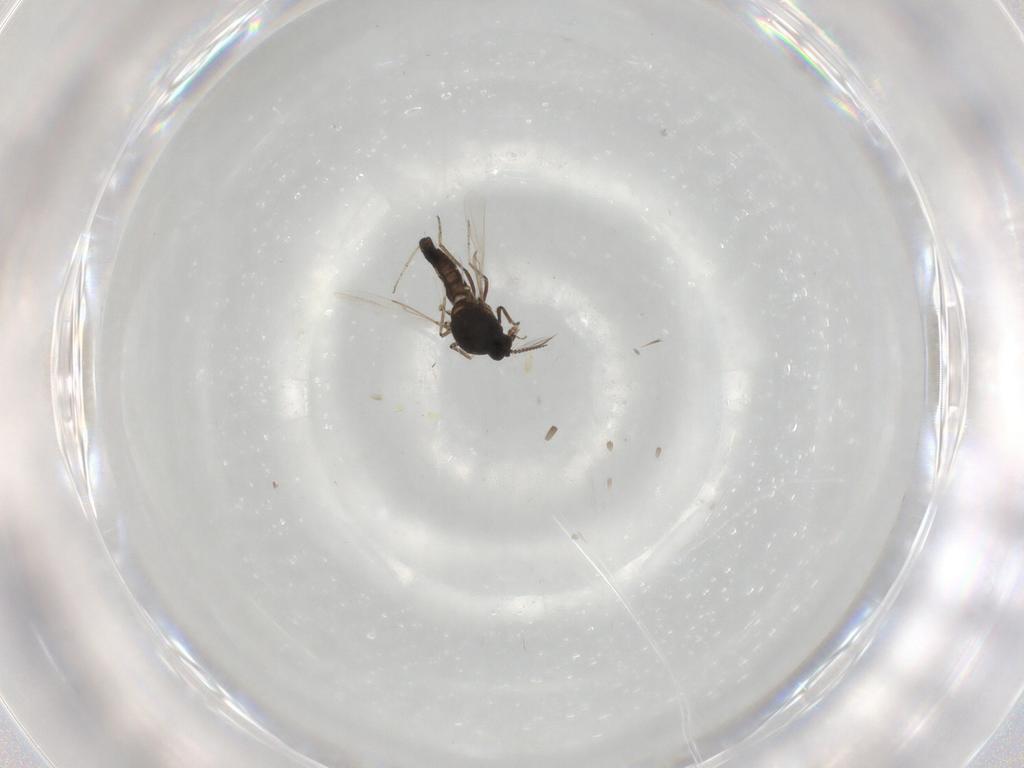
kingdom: Animalia
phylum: Arthropoda
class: Insecta
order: Diptera
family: Ceratopogonidae
